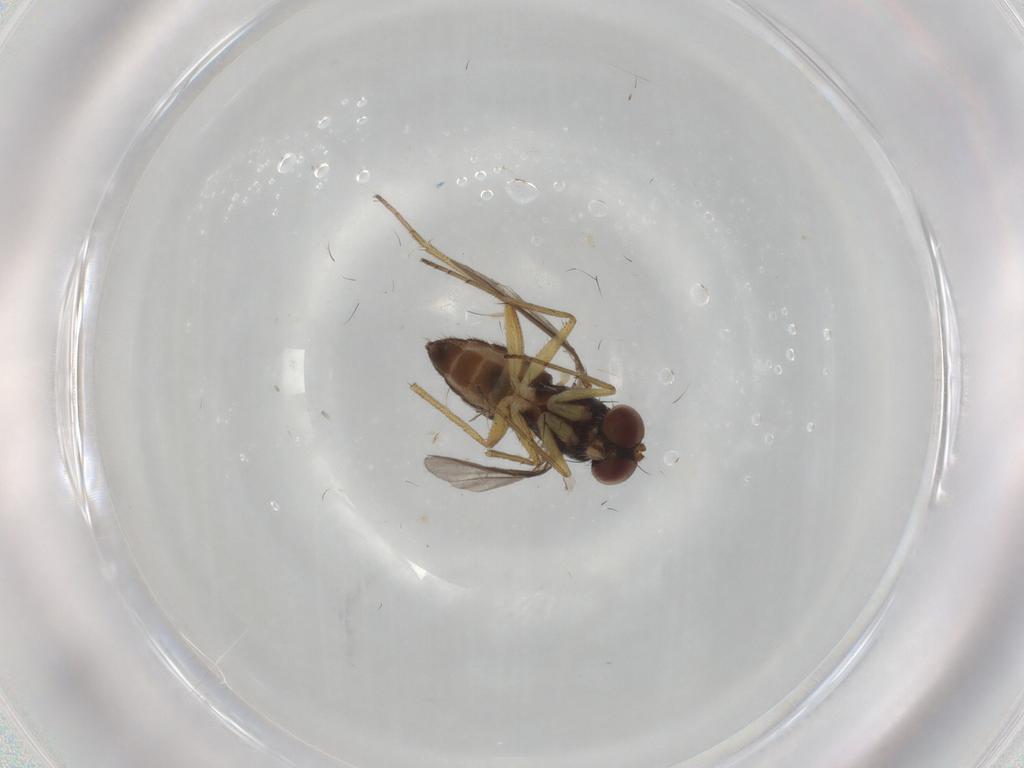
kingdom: Animalia
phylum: Arthropoda
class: Insecta
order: Diptera
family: Dolichopodidae
